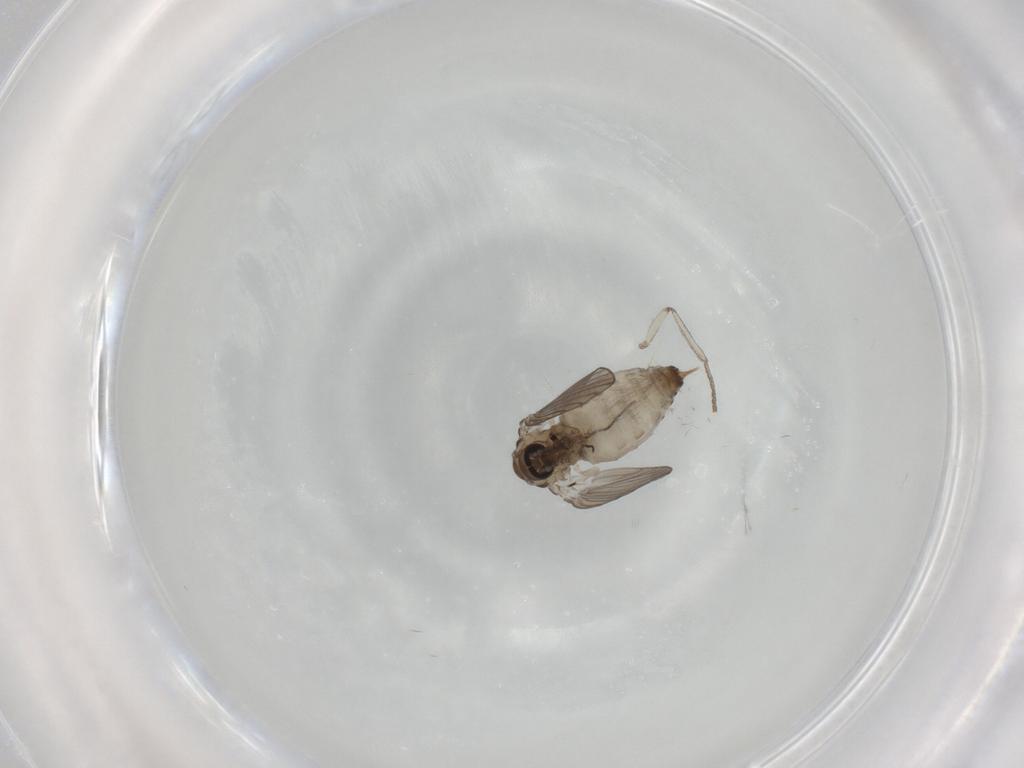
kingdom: Animalia
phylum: Arthropoda
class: Insecta
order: Diptera
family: Psychodidae
